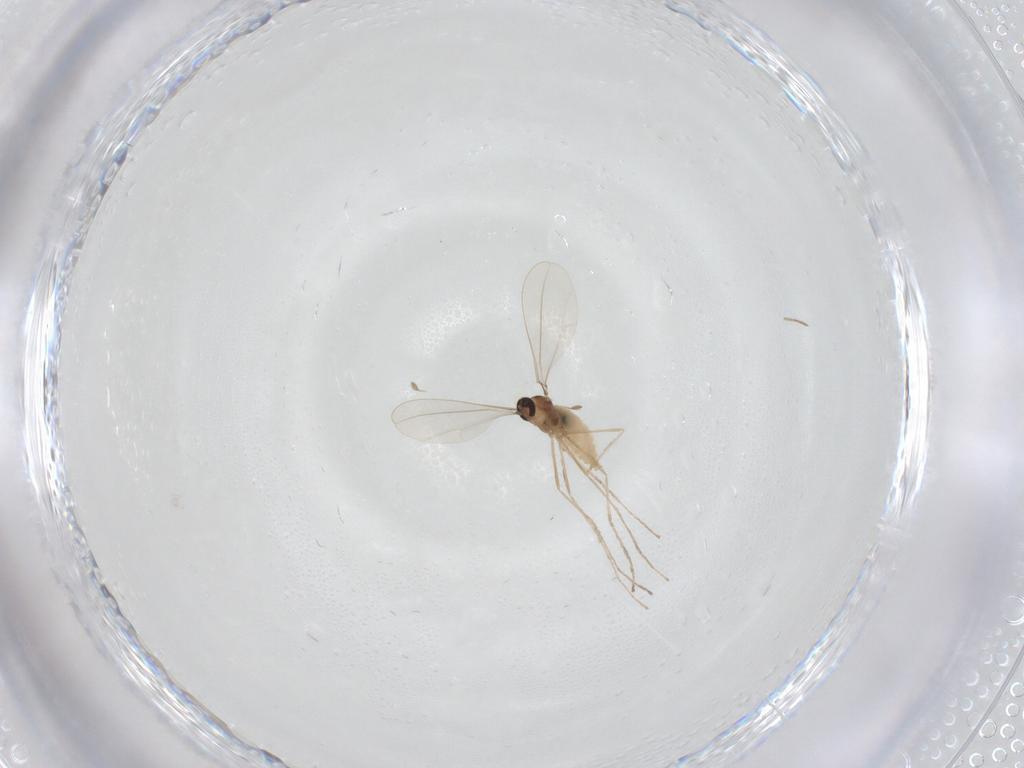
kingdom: Animalia
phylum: Arthropoda
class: Insecta
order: Diptera
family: Cecidomyiidae
